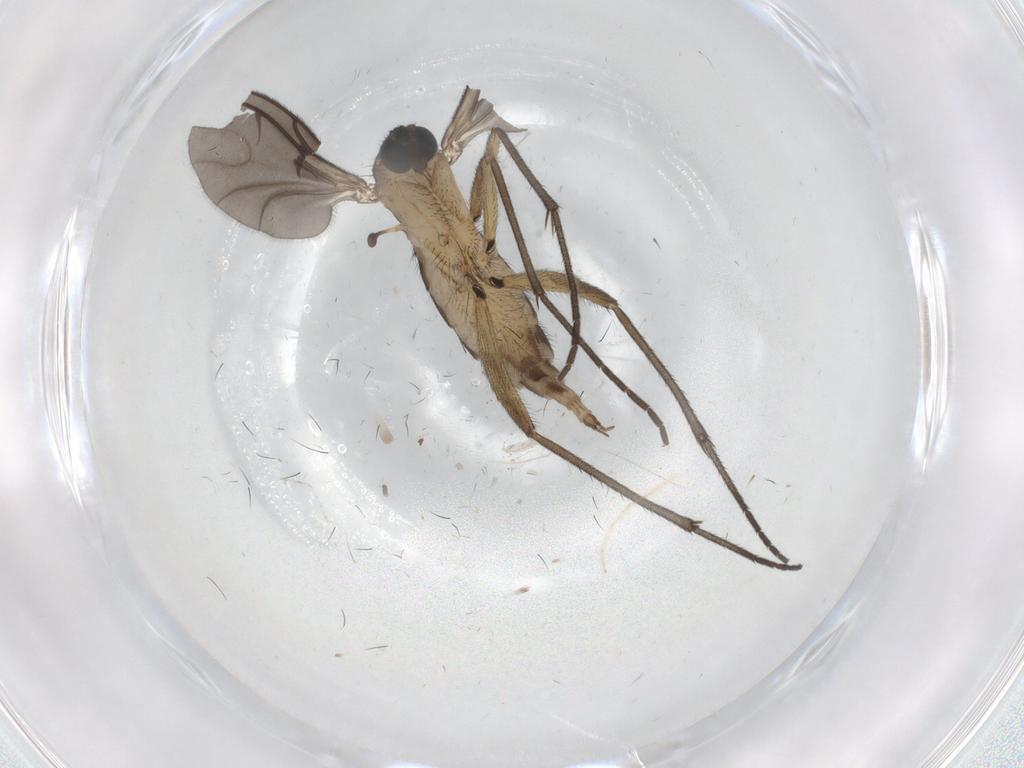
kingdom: Animalia
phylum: Arthropoda
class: Insecta
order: Diptera
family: Sciaridae
